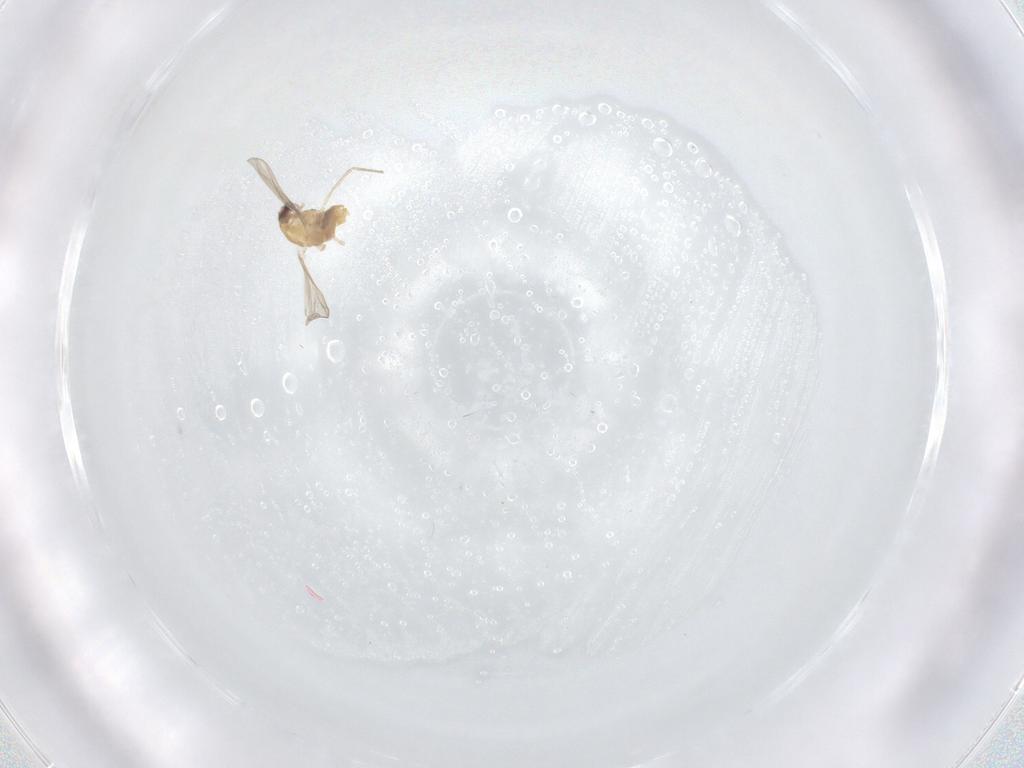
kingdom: Animalia
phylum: Arthropoda
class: Insecta
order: Diptera
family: Chironomidae
